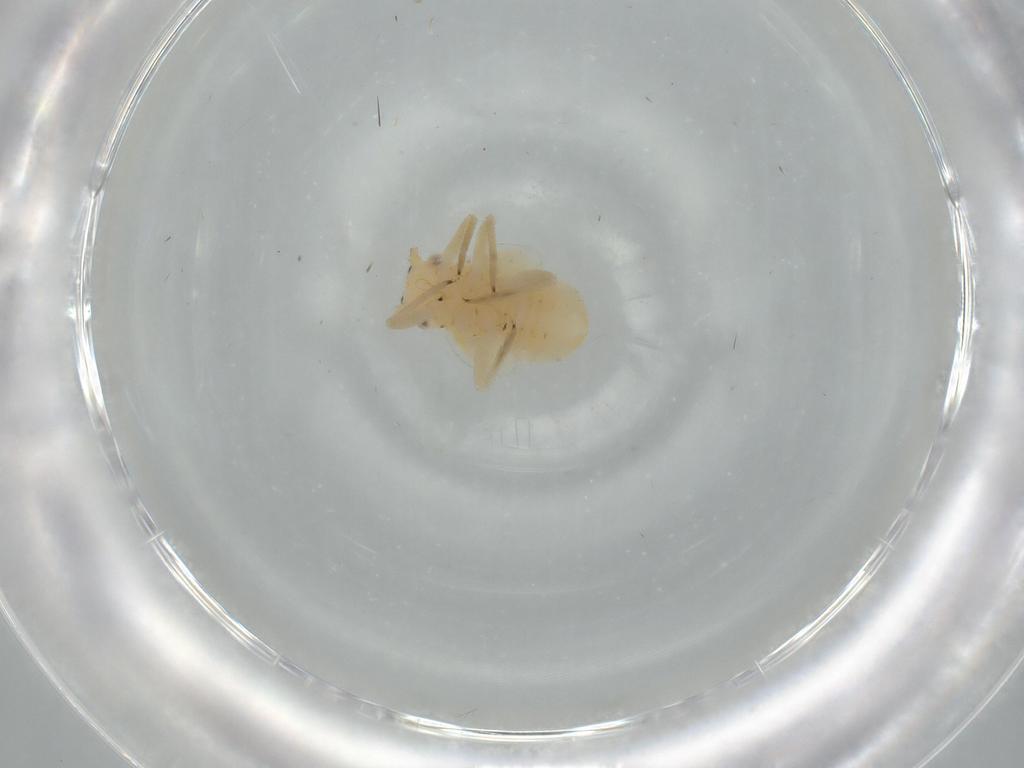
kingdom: Animalia
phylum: Arthropoda
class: Insecta
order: Hemiptera
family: Psyllidae
